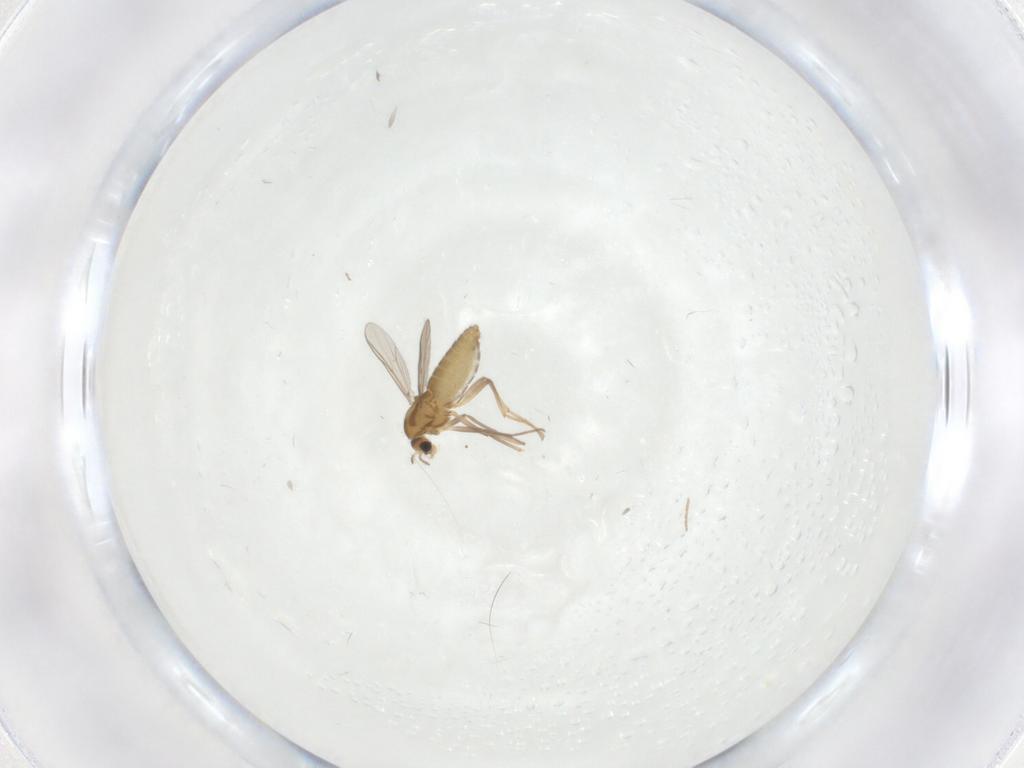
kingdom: Animalia
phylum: Arthropoda
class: Insecta
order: Diptera
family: Chironomidae
